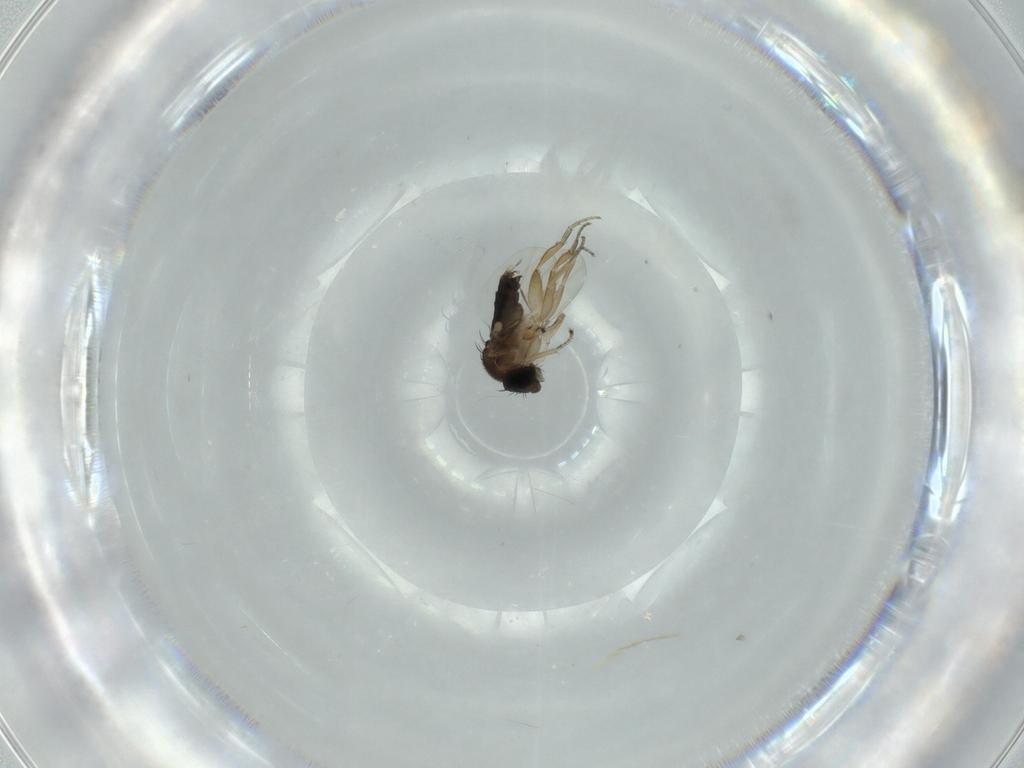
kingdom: Animalia
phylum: Arthropoda
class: Insecta
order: Diptera
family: Phoridae
